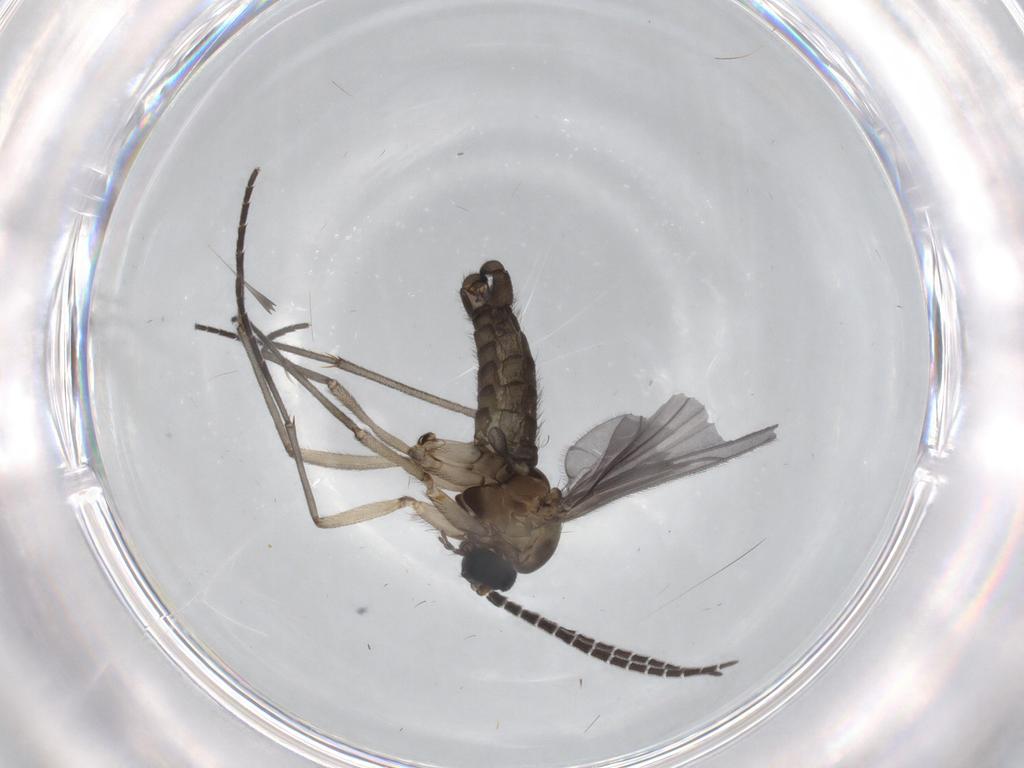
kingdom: Animalia
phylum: Arthropoda
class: Insecta
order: Diptera
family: Sciaridae
